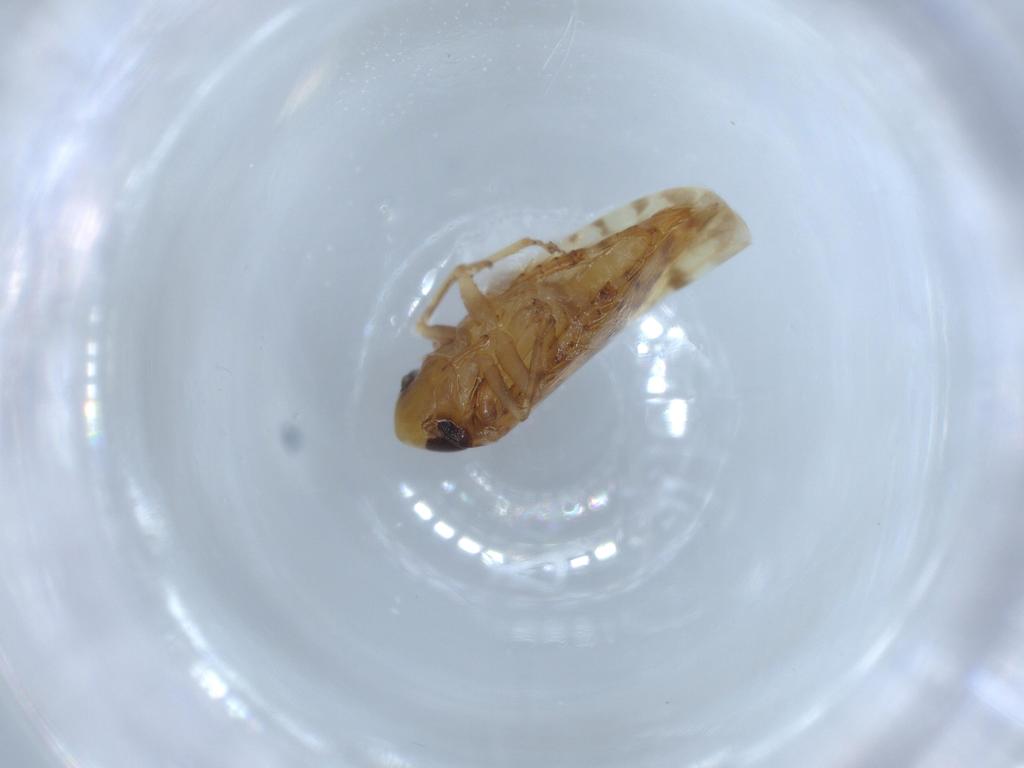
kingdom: Animalia
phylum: Arthropoda
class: Insecta
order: Hemiptera
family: Cicadellidae
